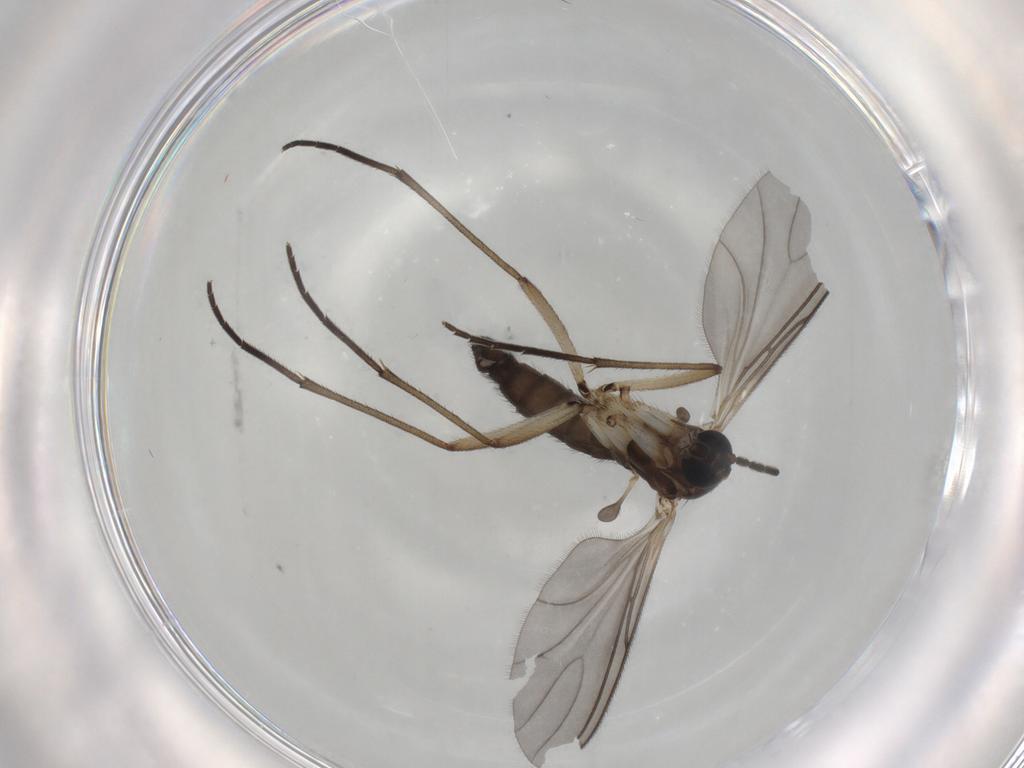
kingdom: Animalia
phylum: Arthropoda
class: Insecta
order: Diptera
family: Sciaridae
